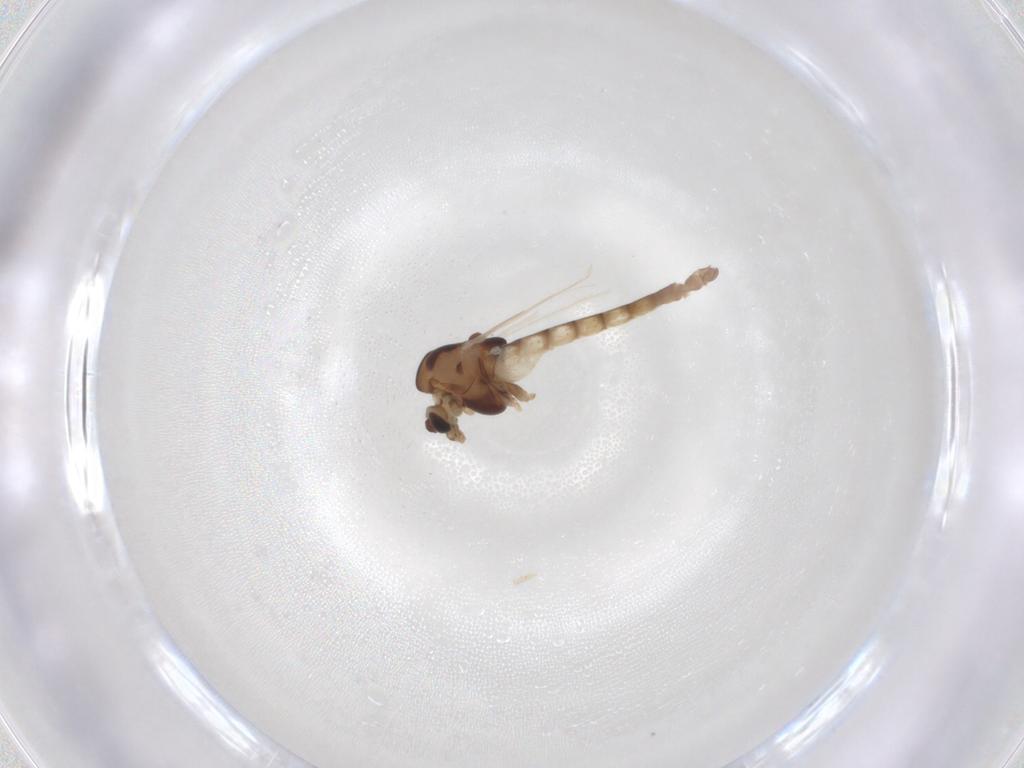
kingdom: Animalia
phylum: Arthropoda
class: Insecta
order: Diptera
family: Chironomidae
